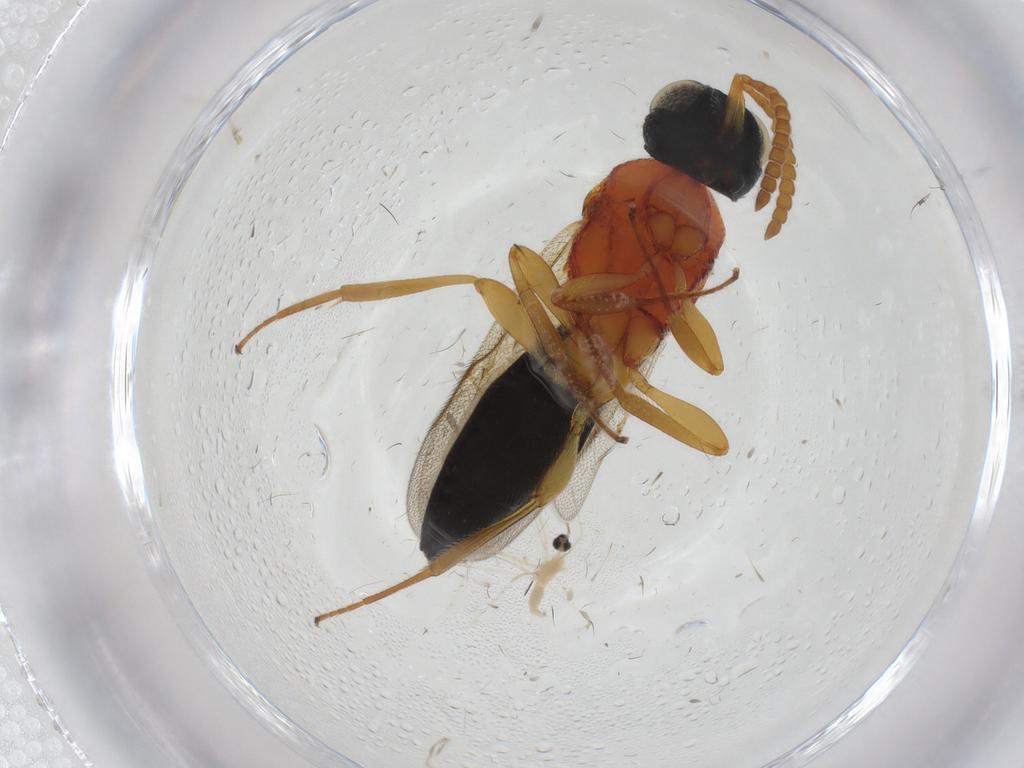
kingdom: Animalia
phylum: Arthropoda
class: Insecta
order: Hymenoptera
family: Scelionidae
